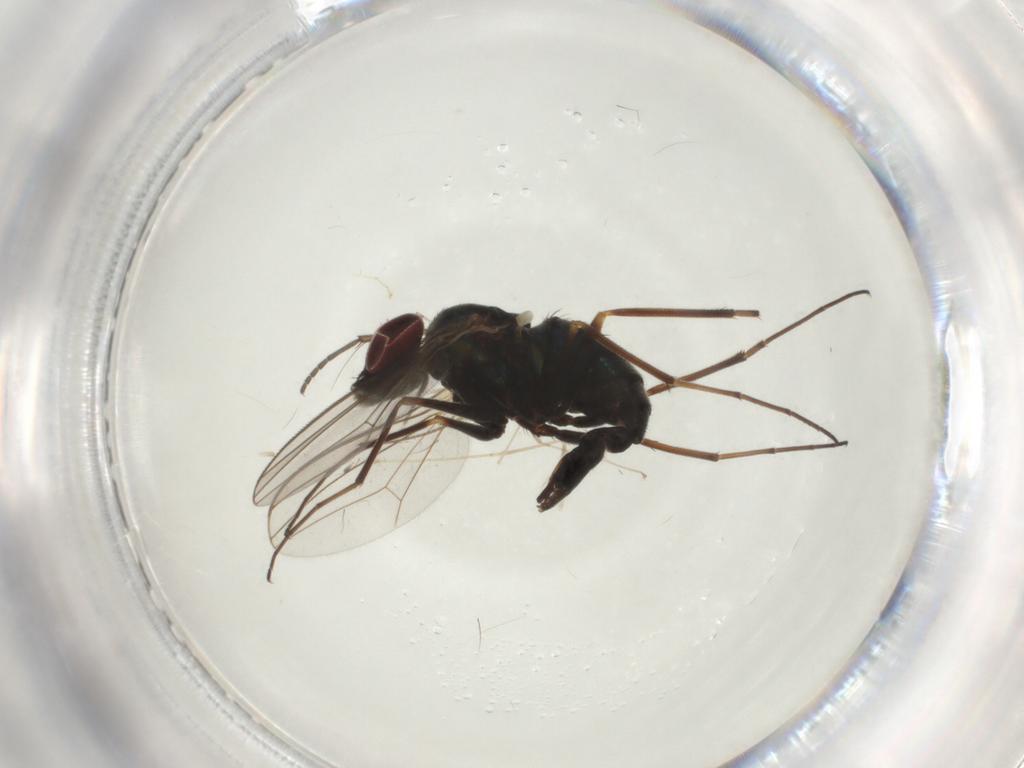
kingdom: Animalia
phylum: Arthropoda
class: Insecta
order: Diptera
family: Dolichopodidae
